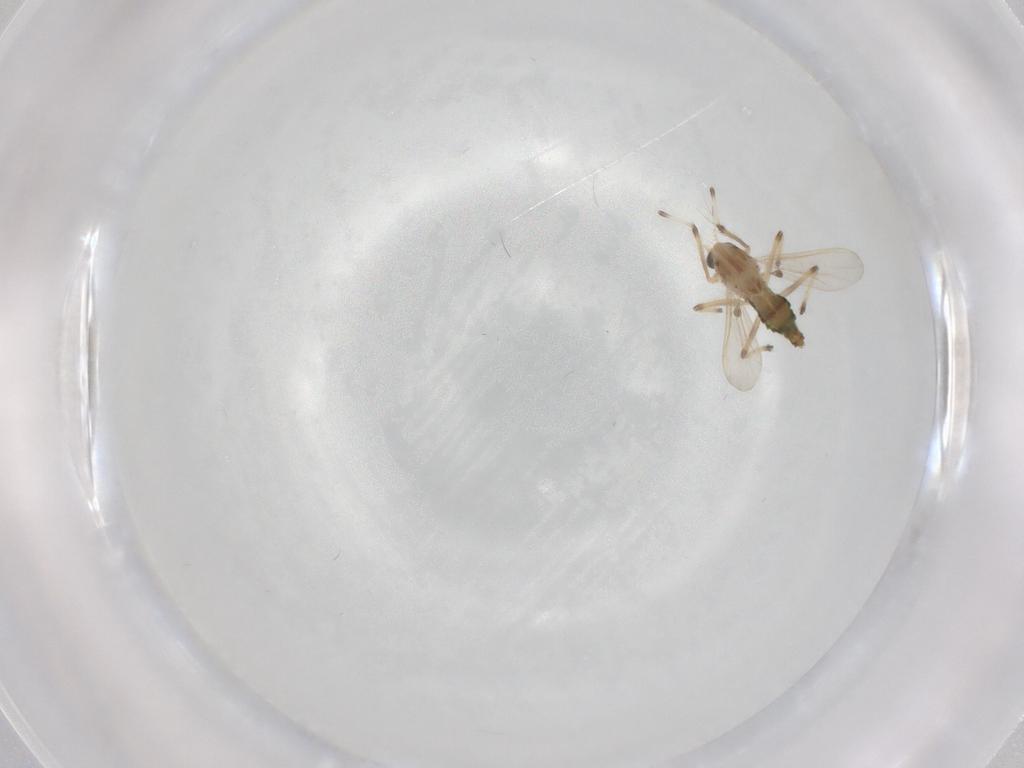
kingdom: Animalia
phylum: Arthropoda
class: Insecta
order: Diptera
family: Chironomidae
